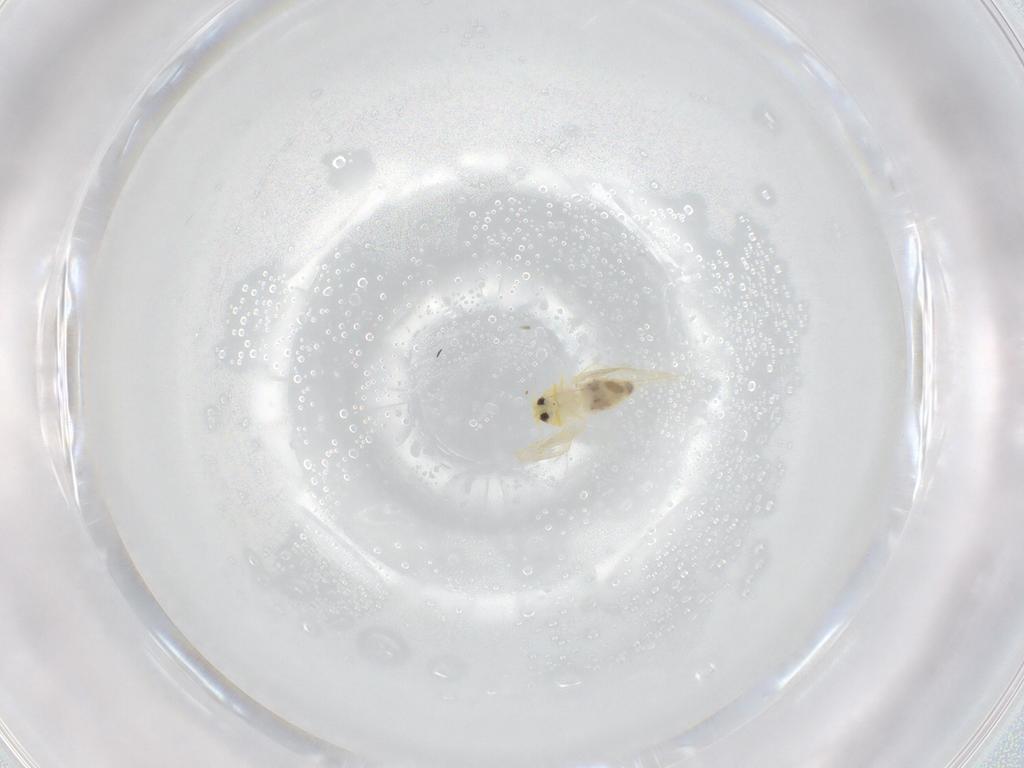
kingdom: Animalia
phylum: Arthropoda
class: Insecta
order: Hemiptera
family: Aleyrodidae
